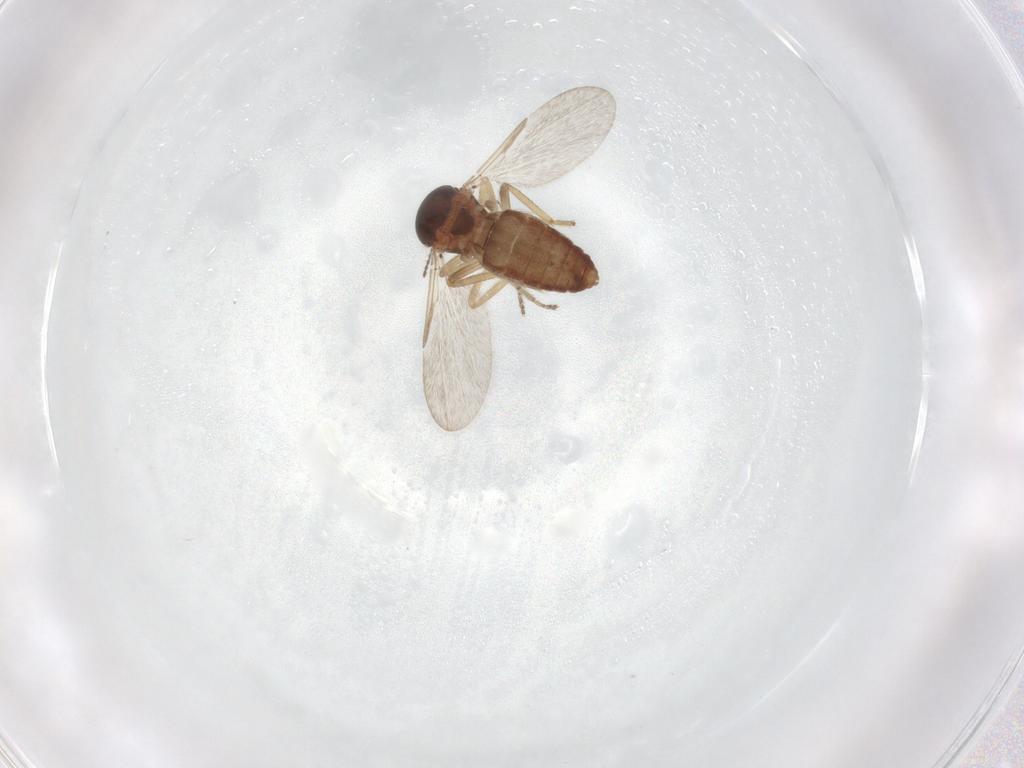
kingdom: Animalia
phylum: Arthropoda
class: Insecta
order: Diptera
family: Ceratopogonidae
